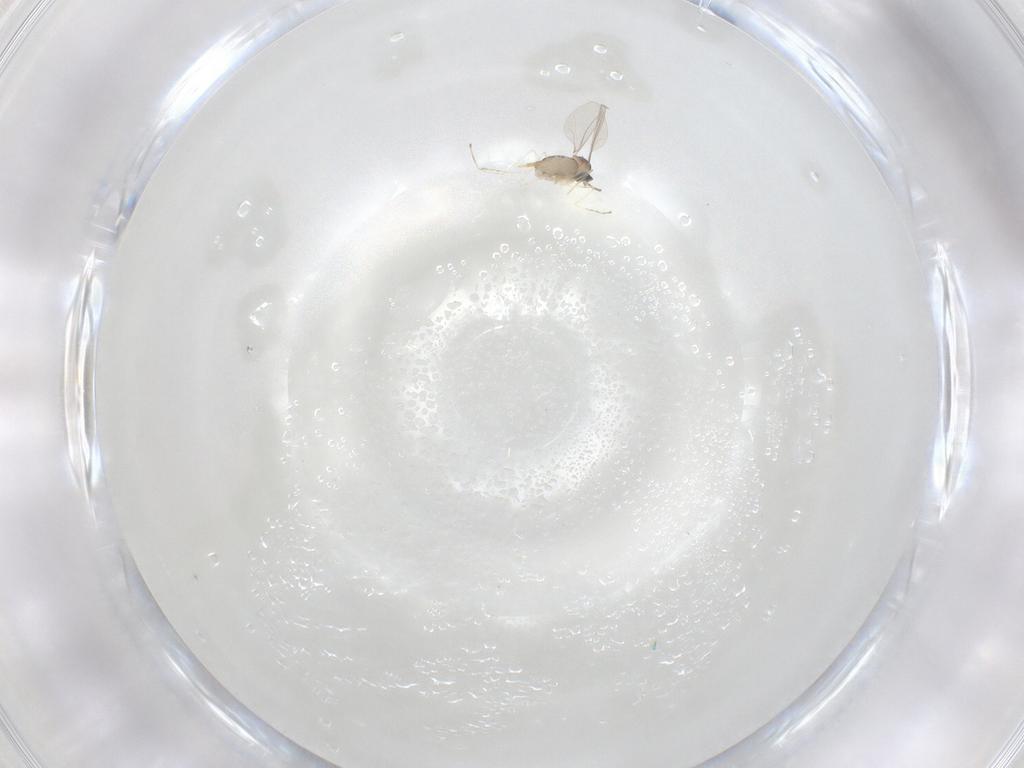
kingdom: Animalia
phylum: Arthropoda
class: Insecta
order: Diptera
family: Cecidomyiidae
